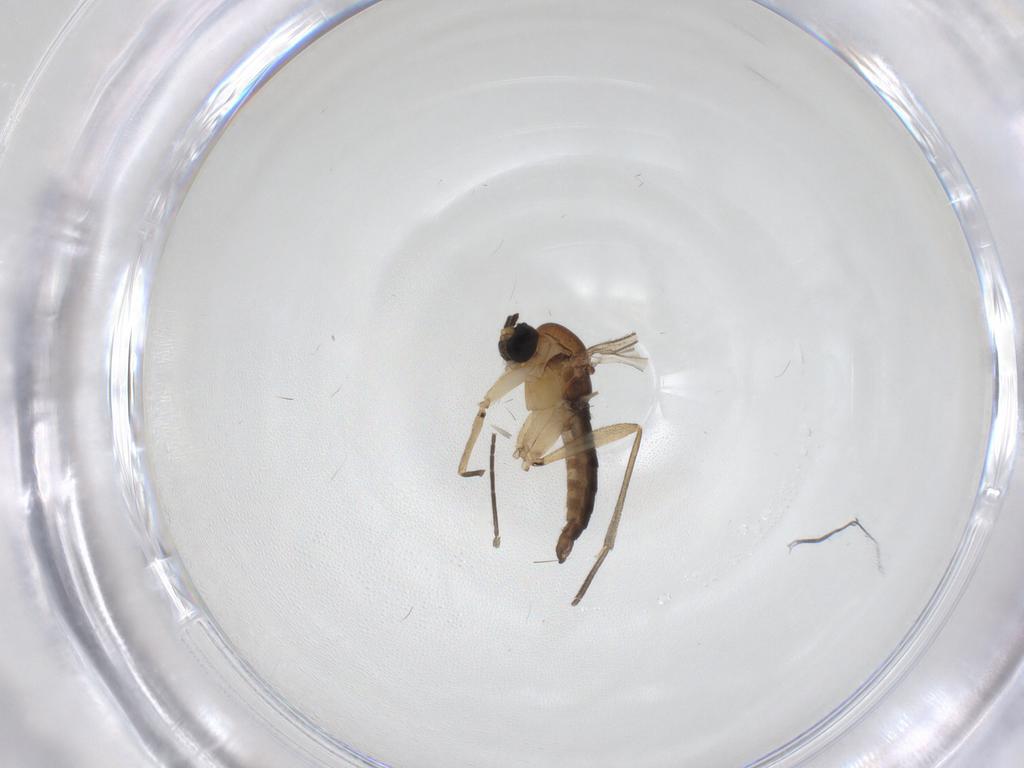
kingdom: Animalia
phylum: Arthropoda
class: Insecta
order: Diptera
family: Sciaridae
